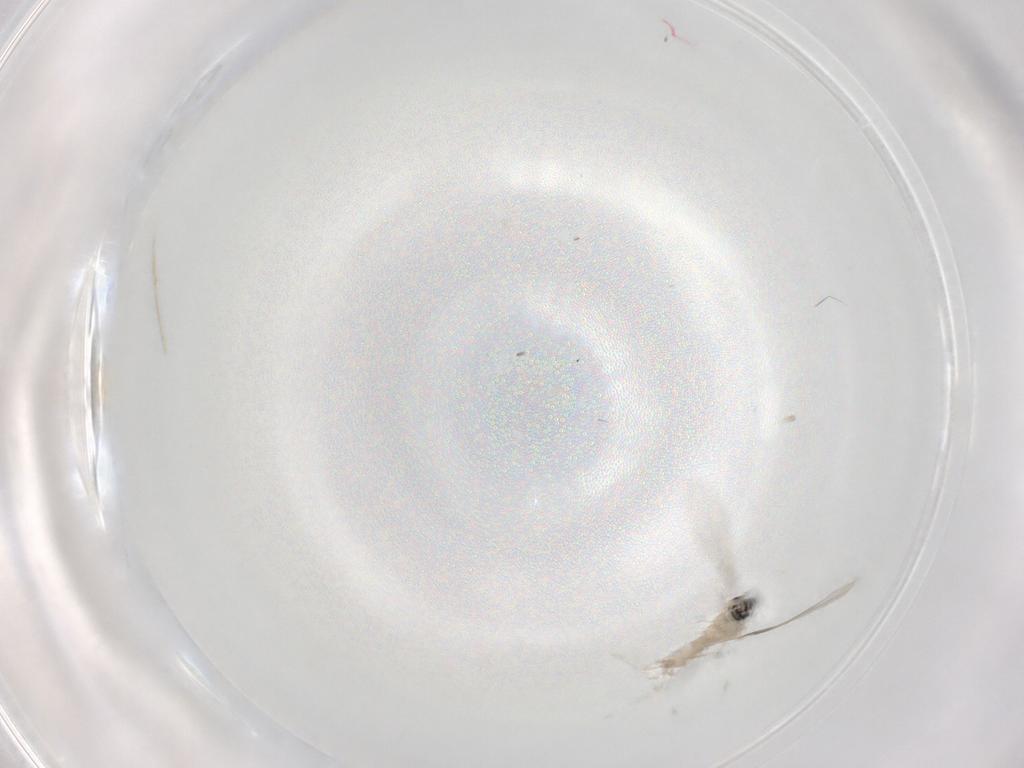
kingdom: Animalia
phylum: Arthropoda
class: Insecta
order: Diptera
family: Cecidomyiidae
